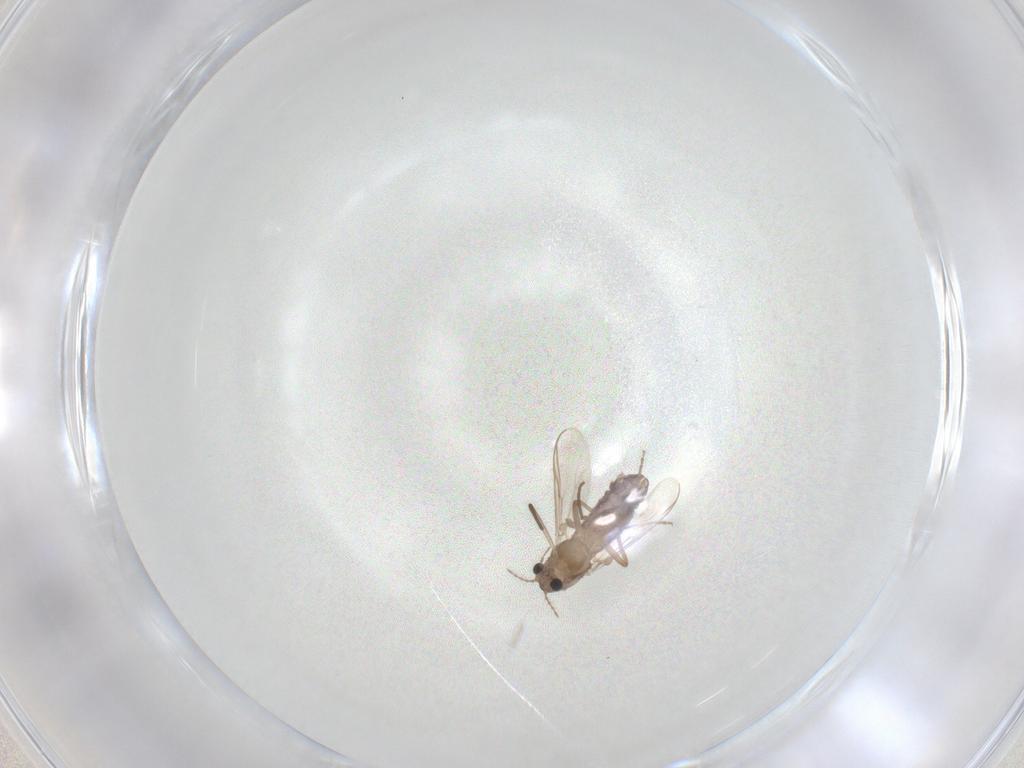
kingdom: Animalia
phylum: Arthropoda
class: Insecta
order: Diptera
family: Chironomidae
